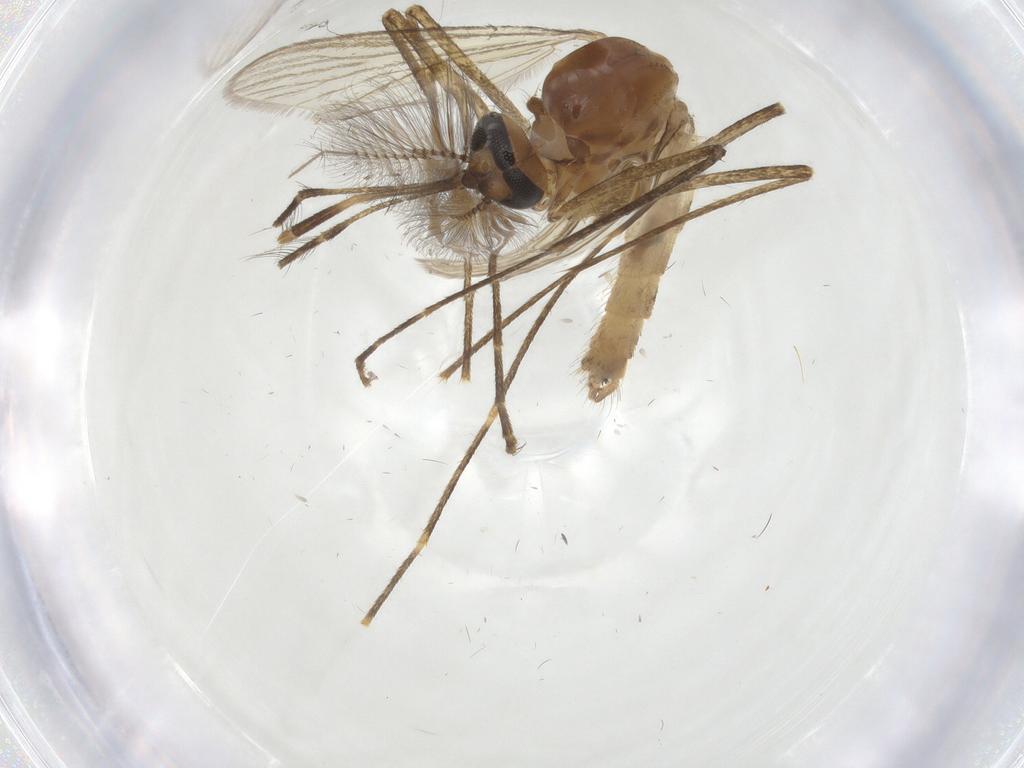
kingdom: Animalia
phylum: Arthropoda
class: Insecta
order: Diptera
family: Culicidae
